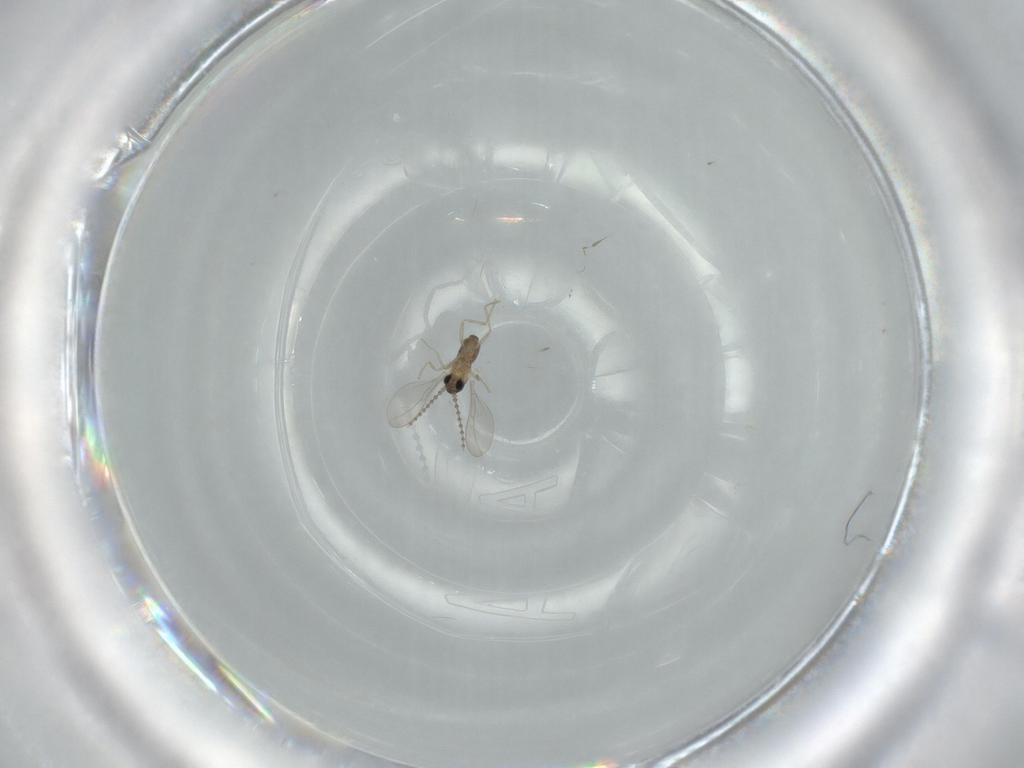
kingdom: Animalia
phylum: Arthropoda
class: Insecta
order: Diptera
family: Cecidomyiidae
